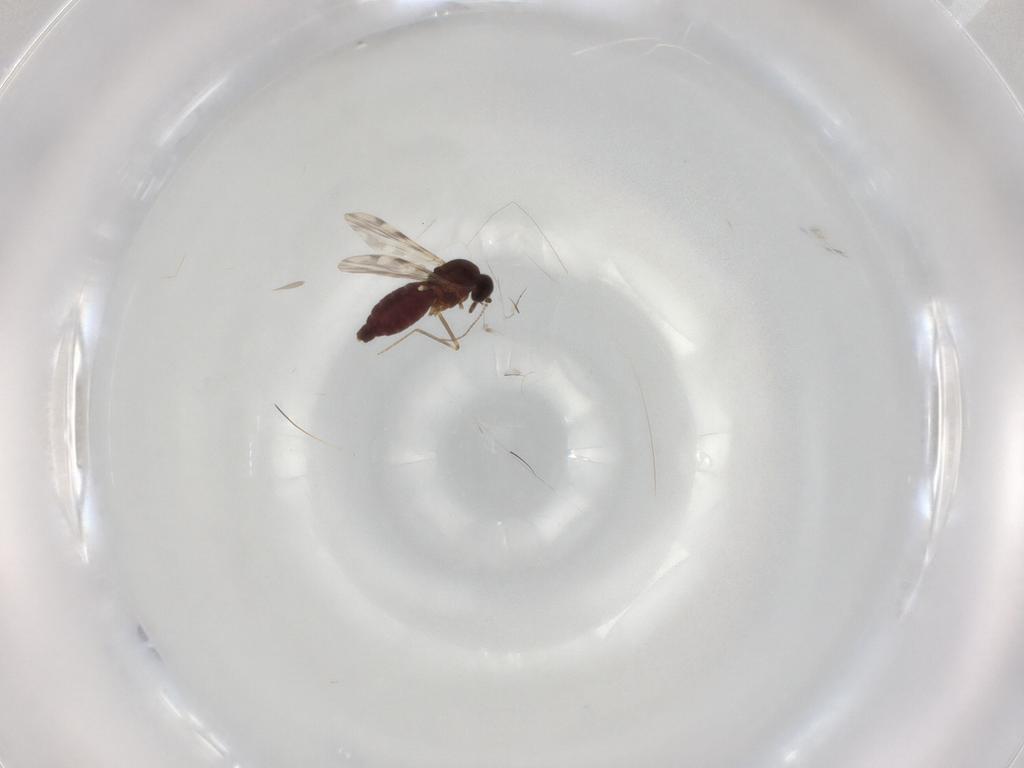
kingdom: Animalia
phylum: Arthropoda
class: Insecta
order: Diptera
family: Ceratopogonidae
